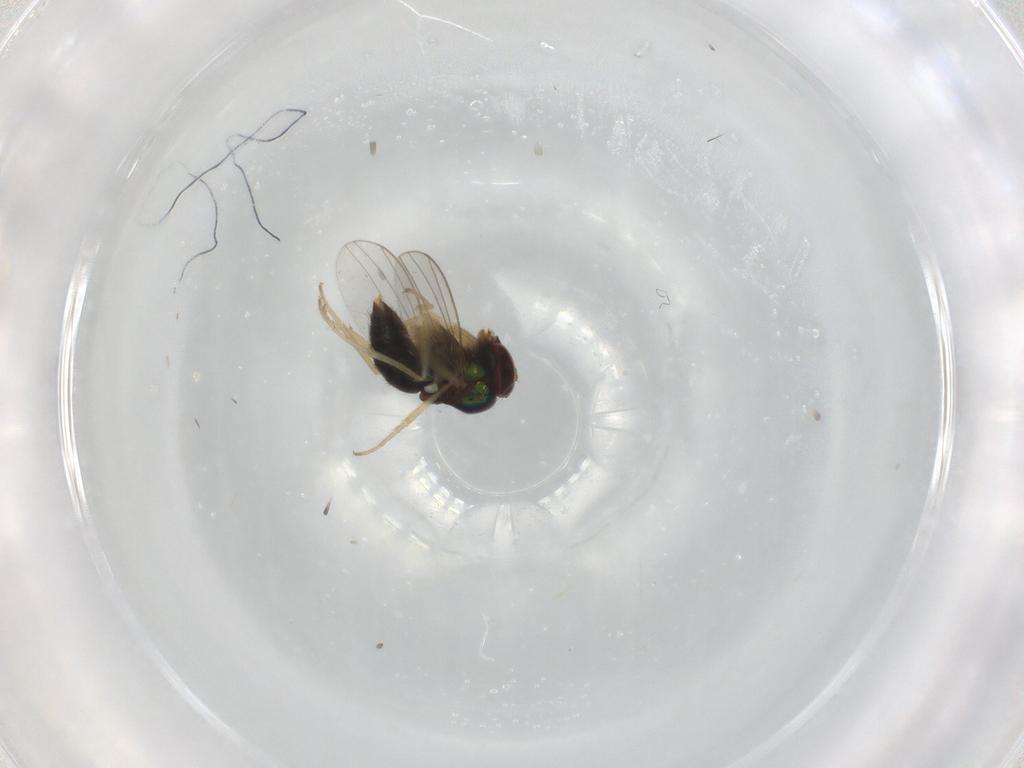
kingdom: Animalia
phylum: Arthropoda
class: Insecta
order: Diptera
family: Dolichopodidae
